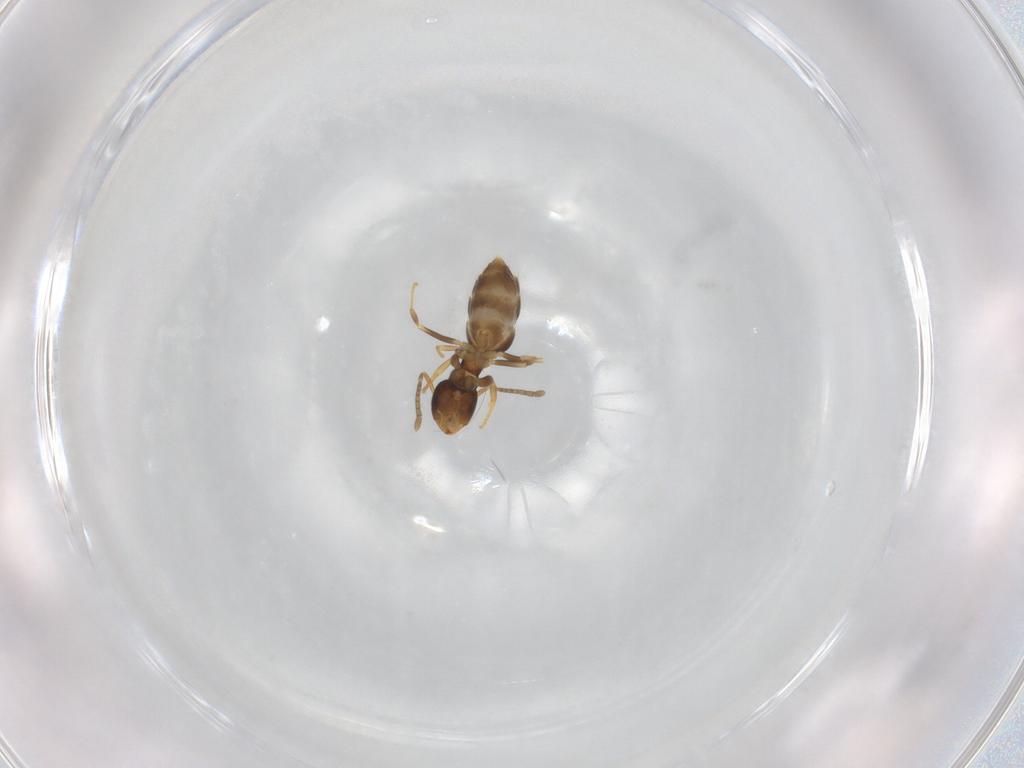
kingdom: Animalia
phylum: Arthropoda
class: Insecta
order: Hymenoptera
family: Formicidae
